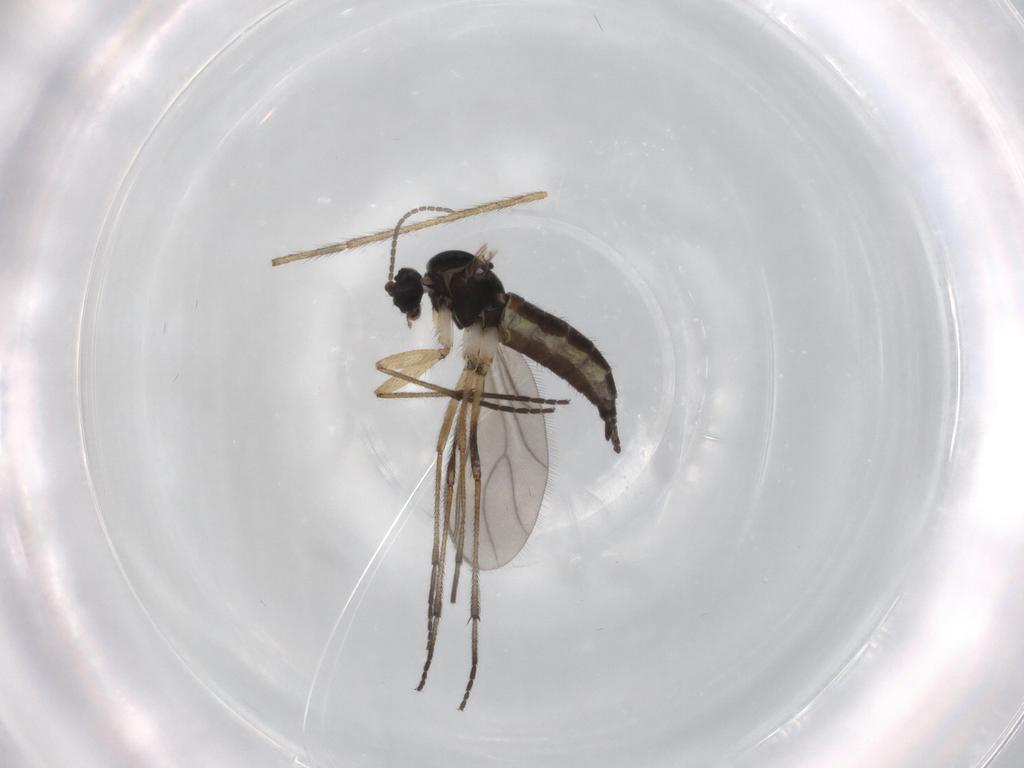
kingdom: Animalia
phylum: Arthropoda
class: Insecta
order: Diptera
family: Sciaridae
